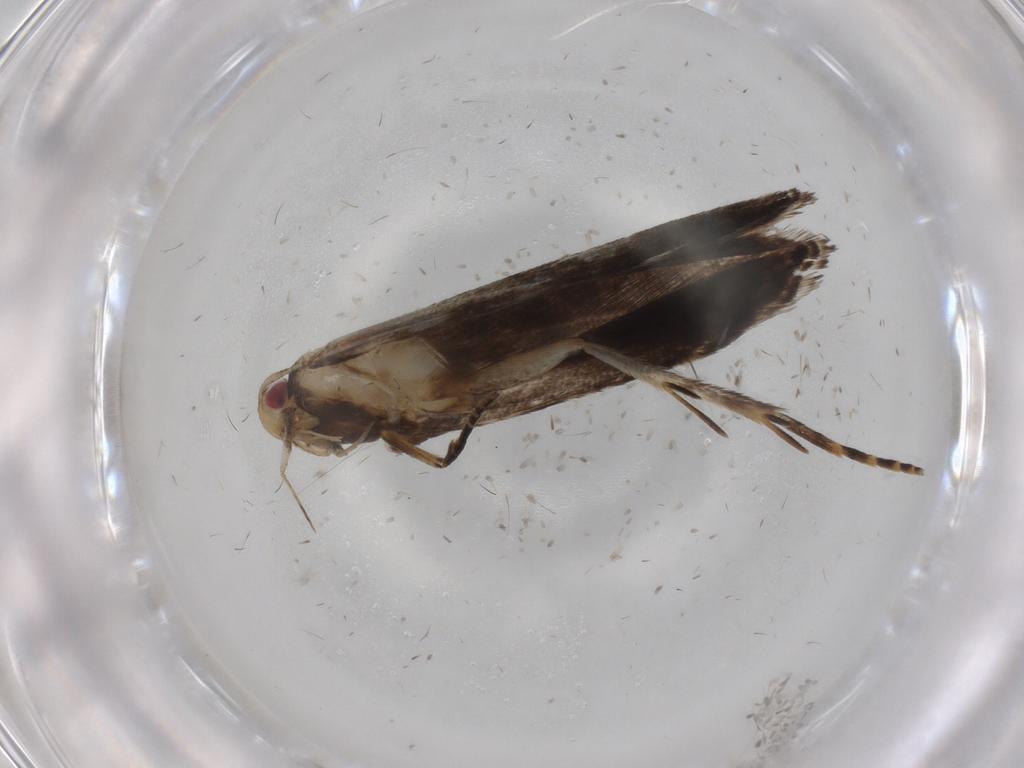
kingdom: Animalia
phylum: Arthropoda
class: Insecta
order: Lepidoptera
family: Gelechiidae
